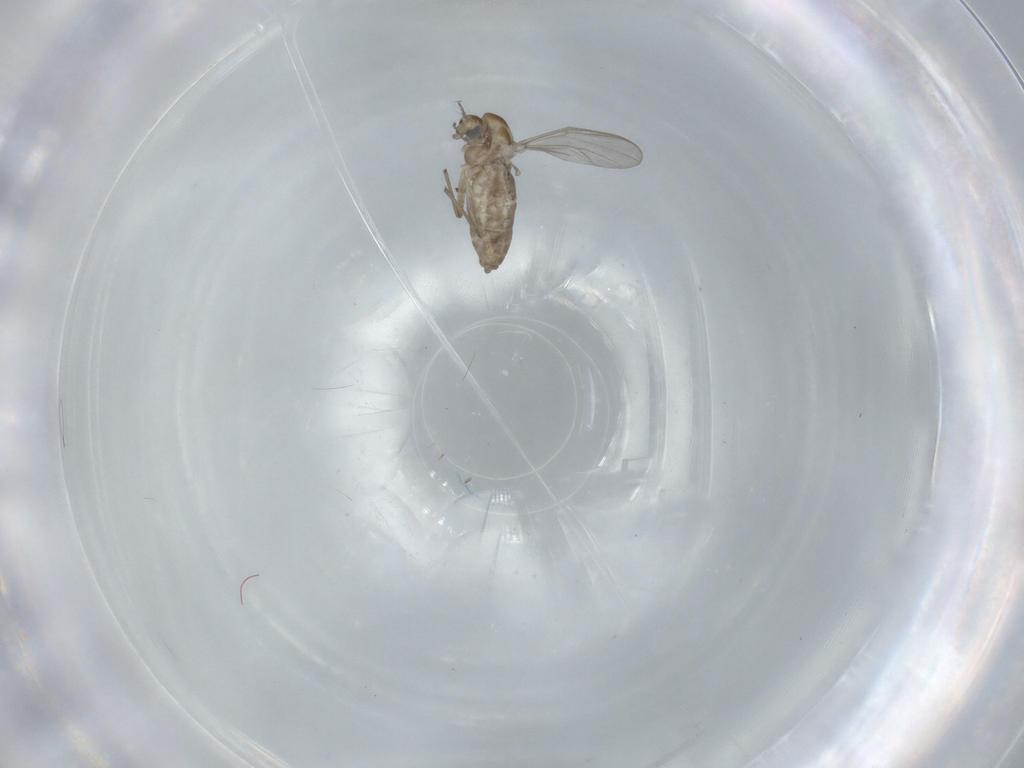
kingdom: Animalia
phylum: Arthropoda
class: Insecta
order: Diptera
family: Chironomidae
